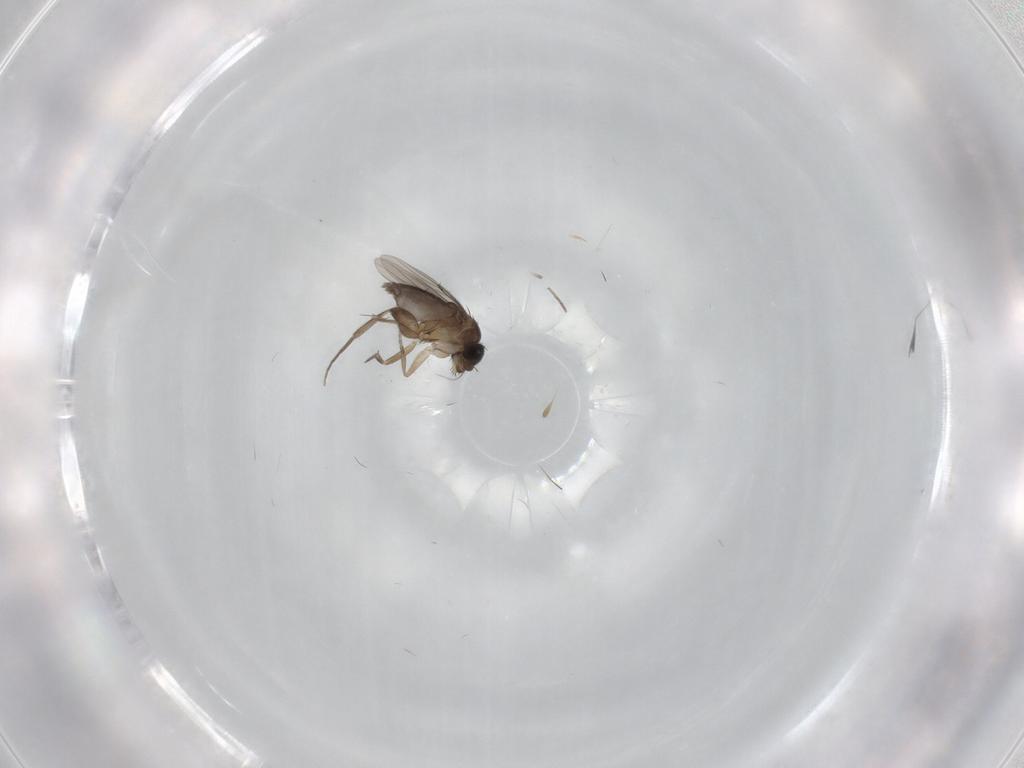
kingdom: Animalia
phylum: Arthropoda
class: Insecta
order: Diptera
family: Phoridae
